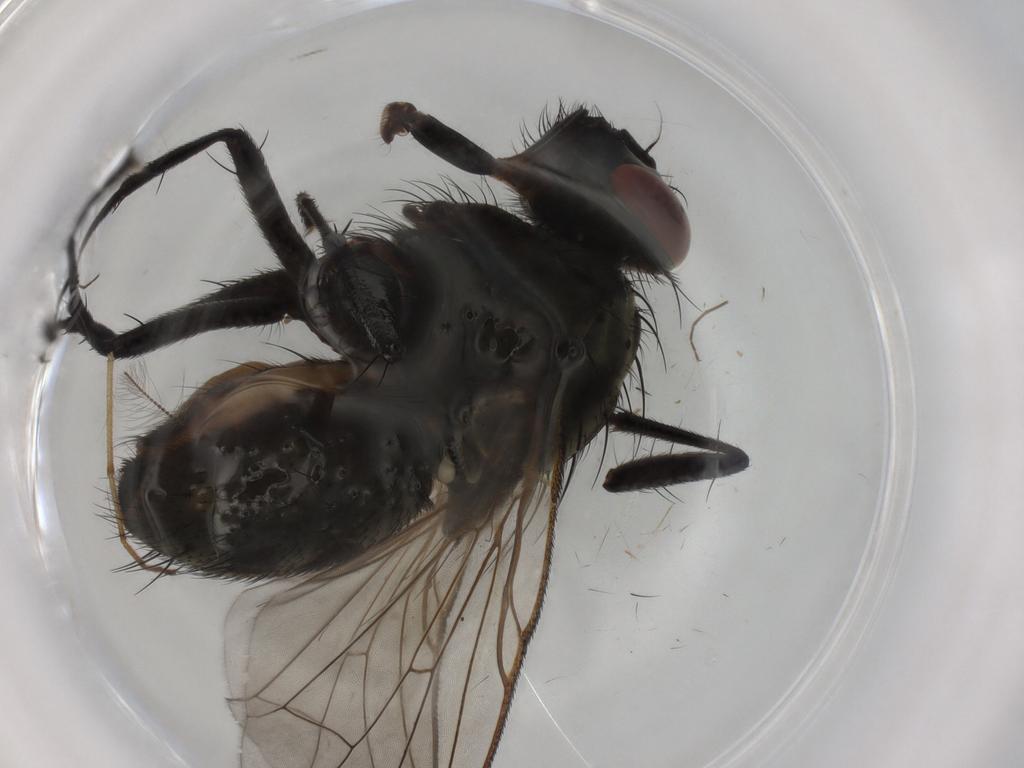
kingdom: Animalia
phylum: Arthropoda
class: Insecta
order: Diptera
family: Muscidae
